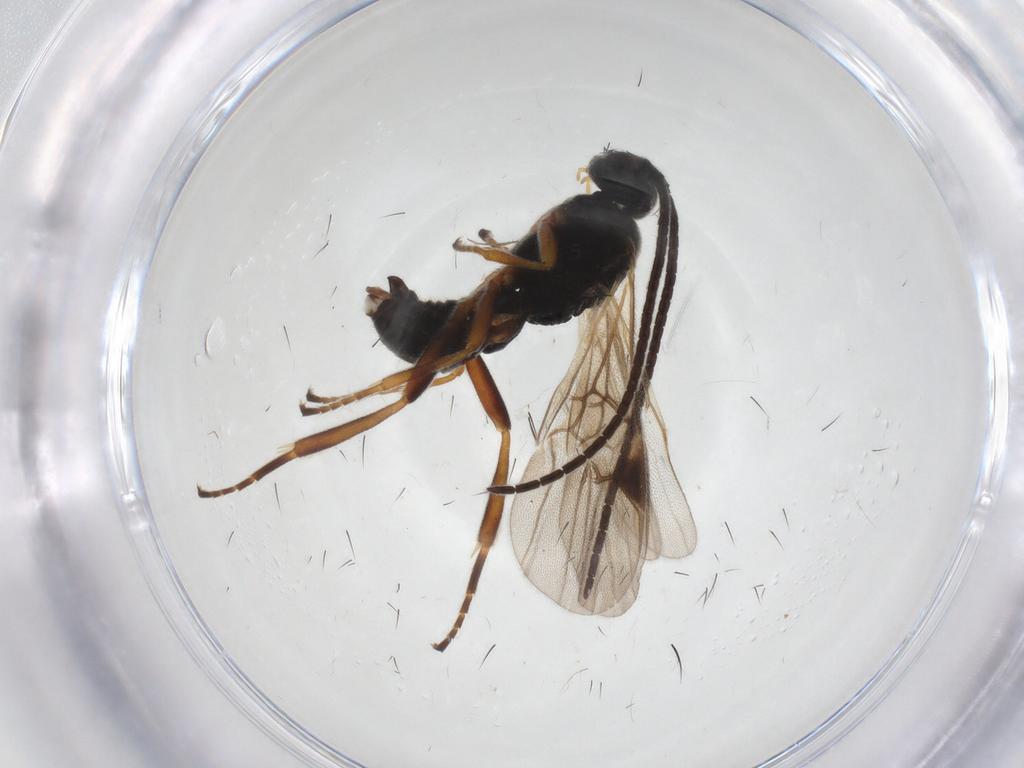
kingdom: Animalia
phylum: Arthropoda
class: Insecta
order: Hymenoptera
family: Braconidae
